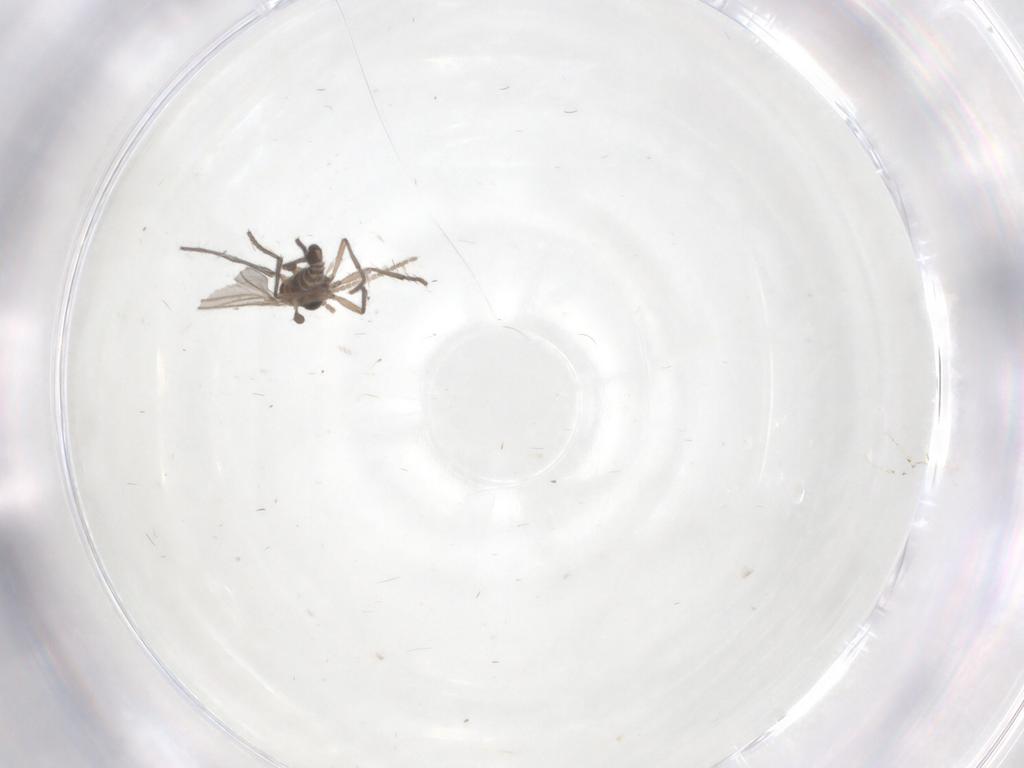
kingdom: Animalia
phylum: Arthropoda
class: Insecta
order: Diptera
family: Sciaridae
